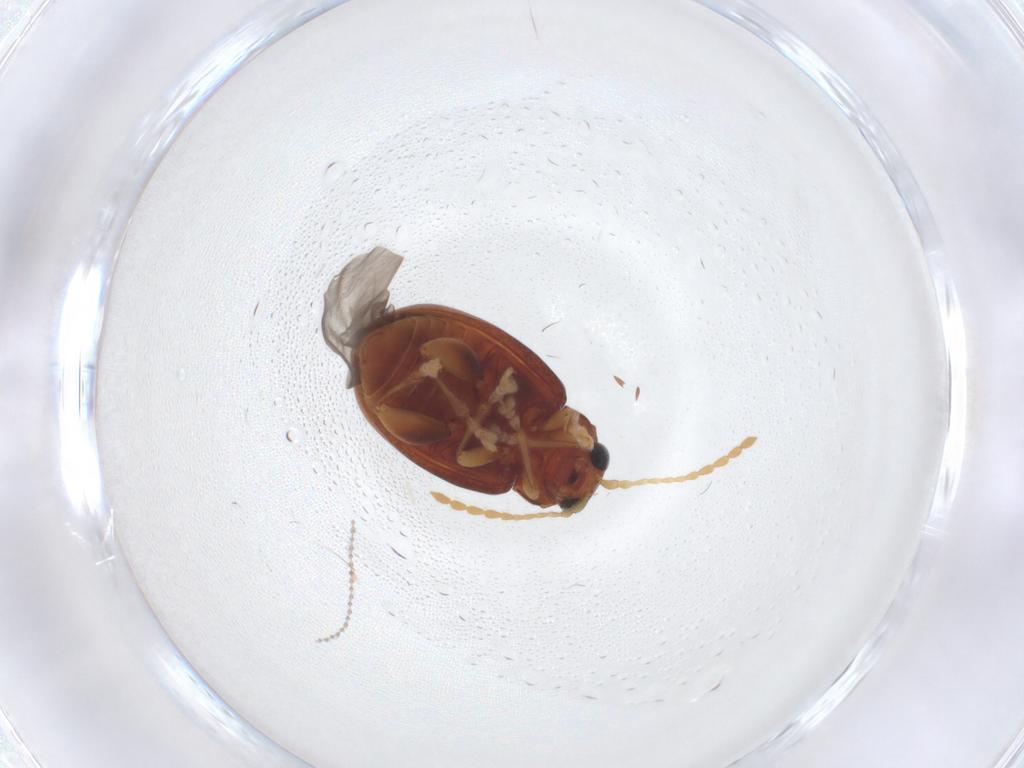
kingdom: Animalia
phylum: Arthropoda
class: Insecta
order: Coleoptera
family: Chrysomelidae
